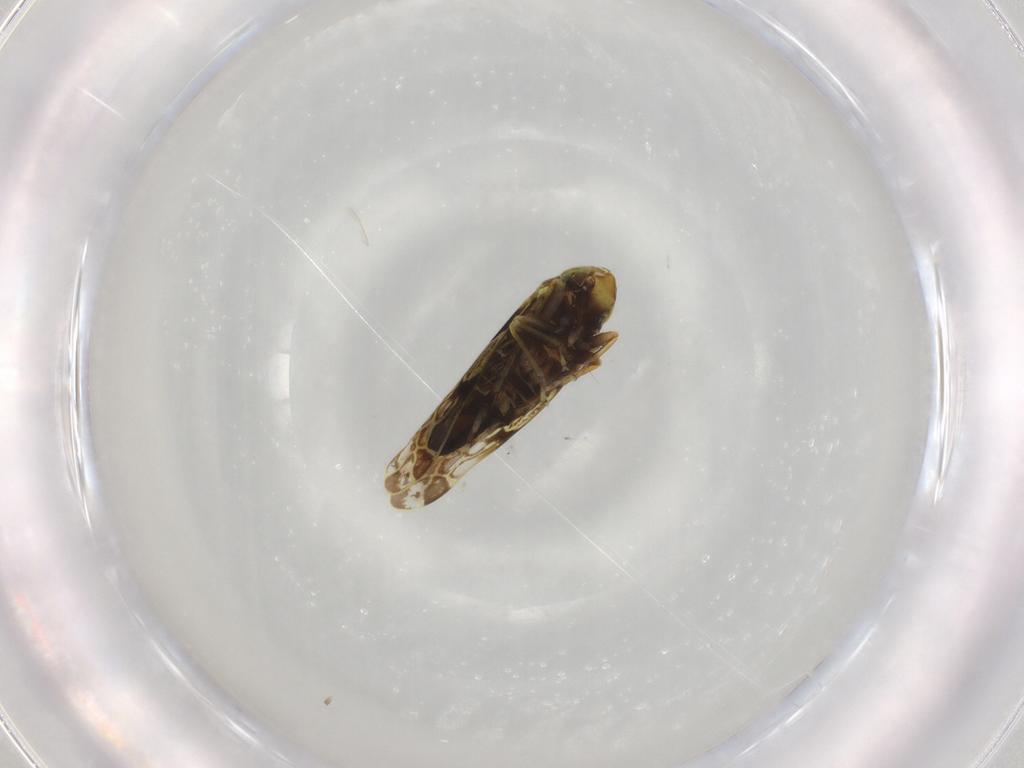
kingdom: Animalia
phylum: Arthropoda
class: Insecta
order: Hemiptera
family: Cicadellidae
